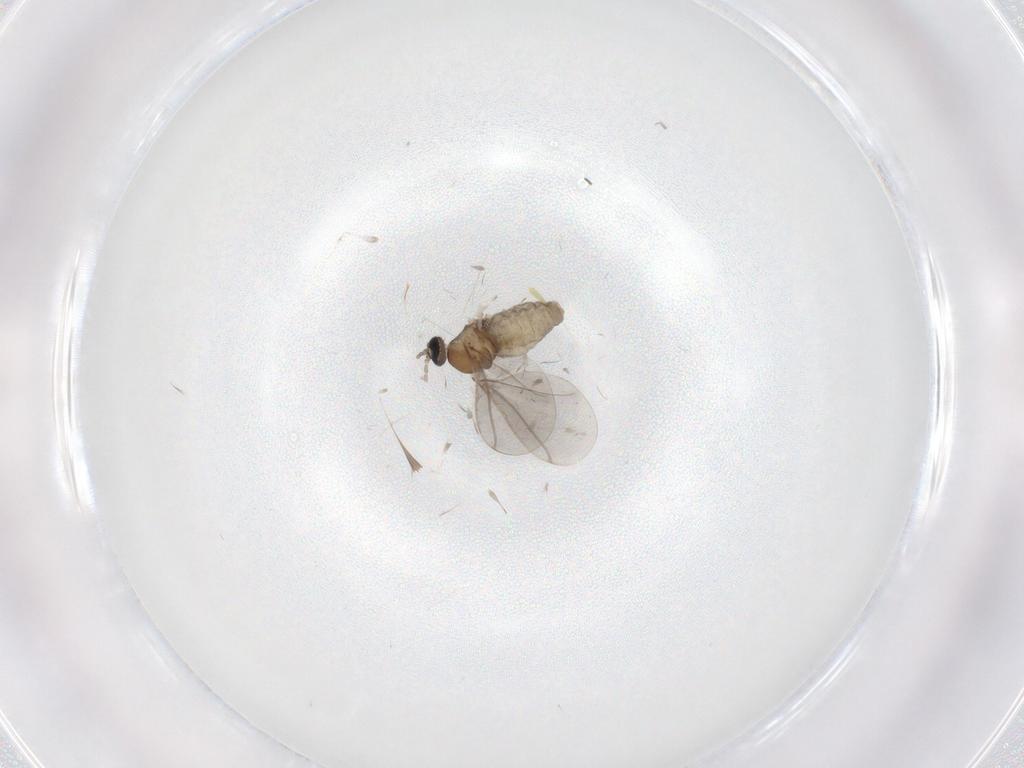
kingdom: Animalia
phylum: Arthropoda
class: Insecta
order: Diptera
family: Cecidomyiidae
